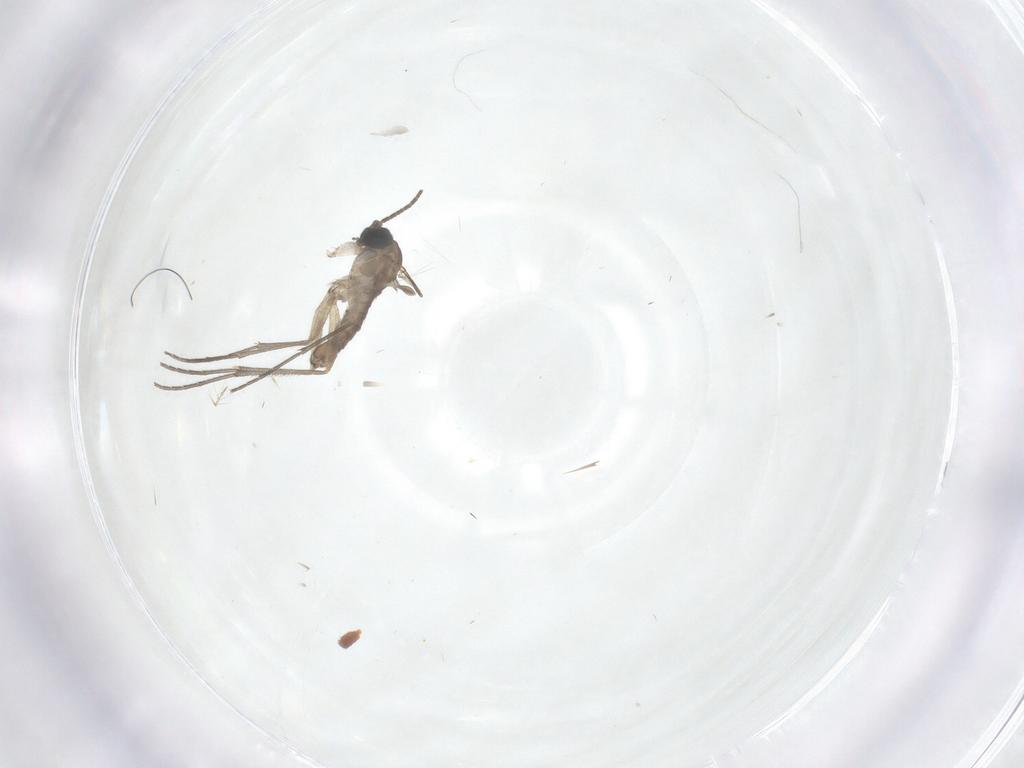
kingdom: Animalia
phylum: Arthropoda
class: Insecta
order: Diptera
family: Sciaridae
